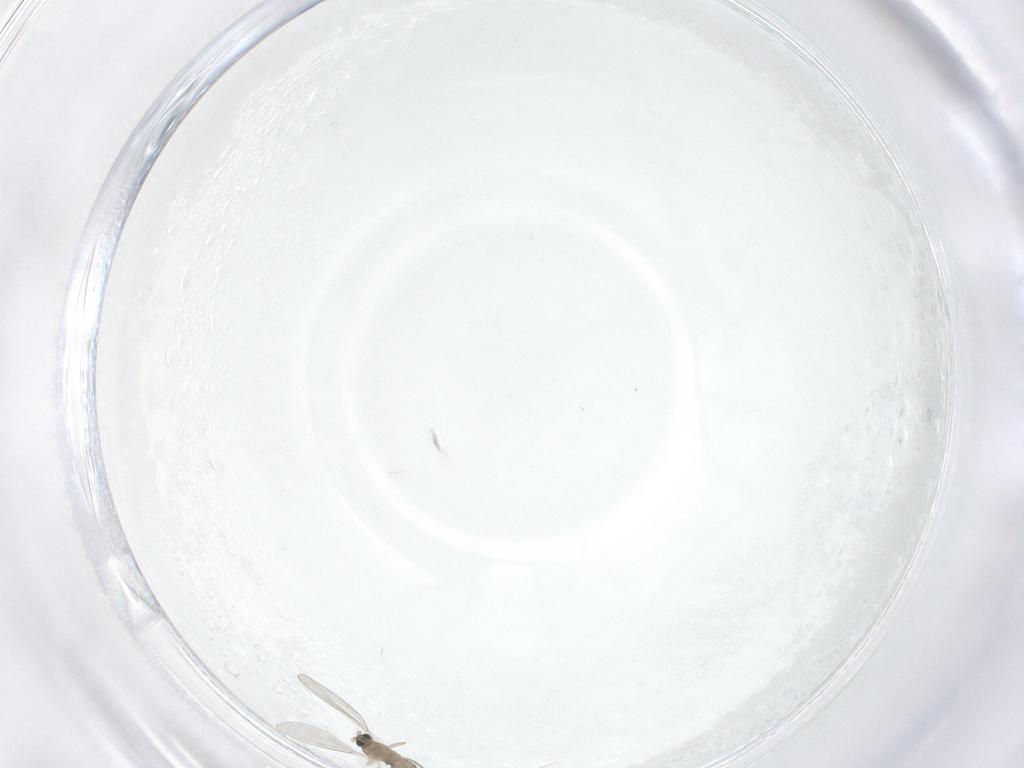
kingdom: Animalia
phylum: Arthropoda
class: Insecta
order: Diptera
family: Cecidomyiidae
